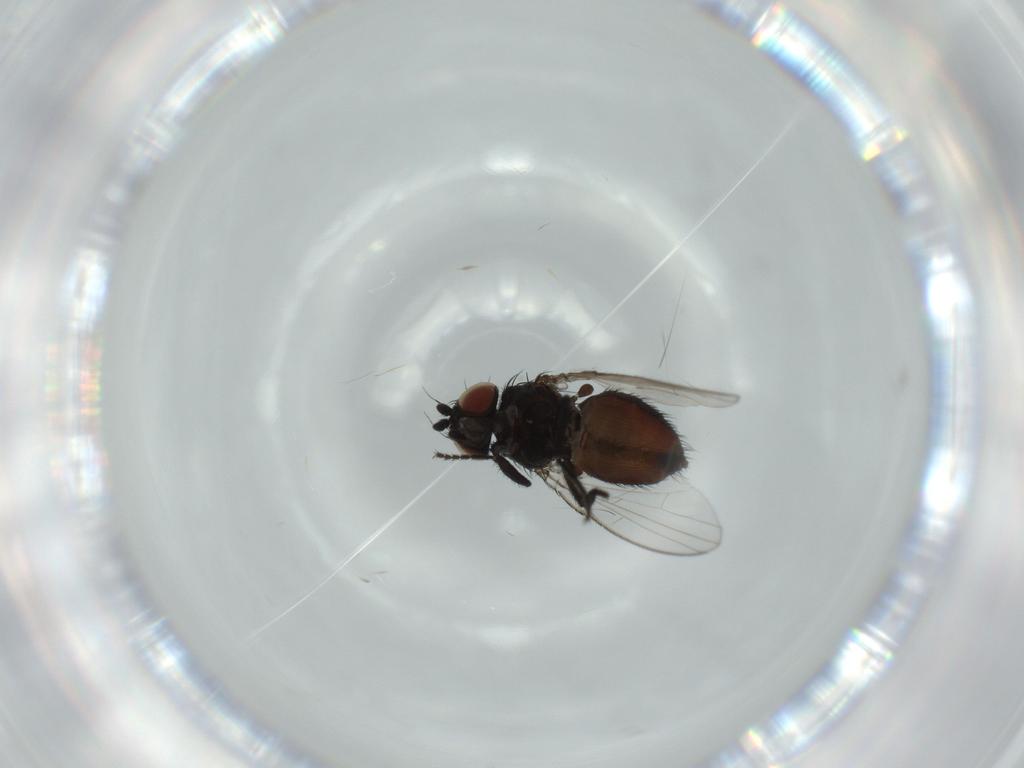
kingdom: Animalia
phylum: Arthropoda
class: Insecta
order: Diptera
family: Milichiidae
